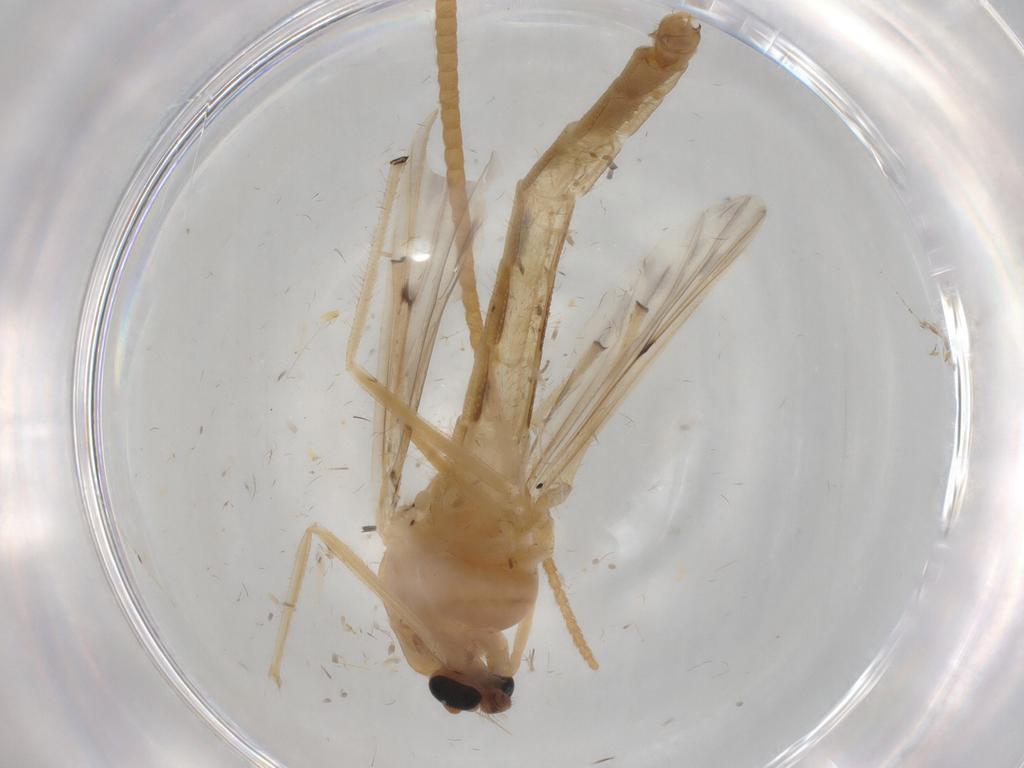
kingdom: Animalia
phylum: Arthropoda
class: Insecta
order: Diptera
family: Chironomidae
